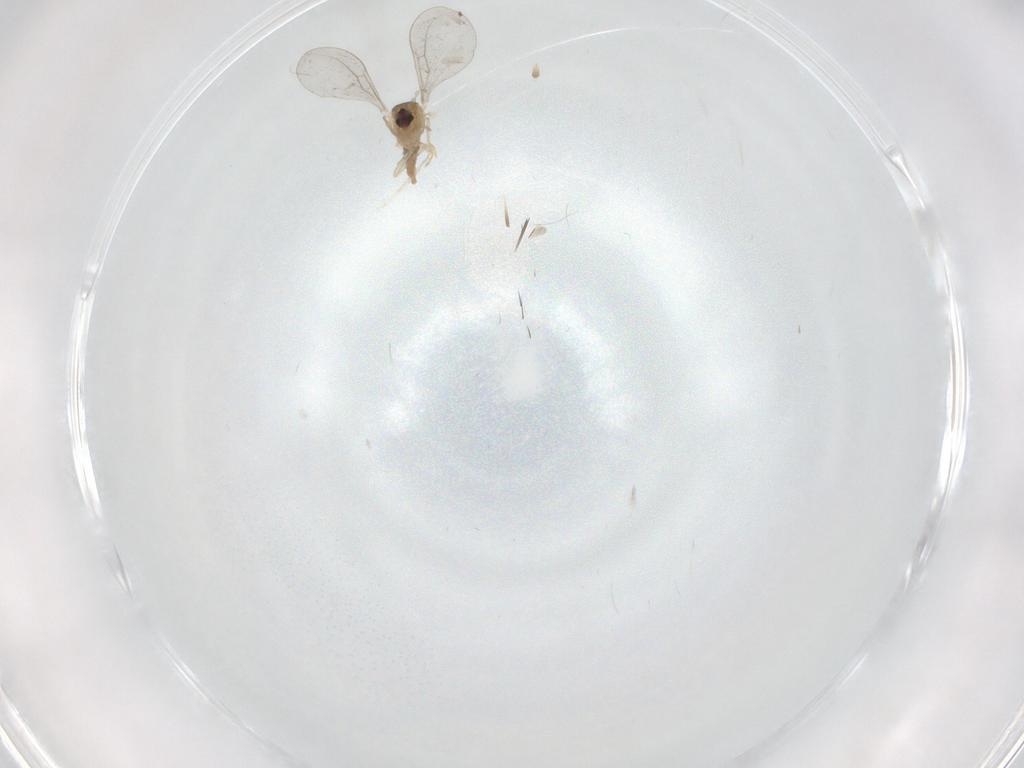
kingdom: Animalia
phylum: Arthropoda
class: Insecta
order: Diptera
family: Cecidomyiidae
